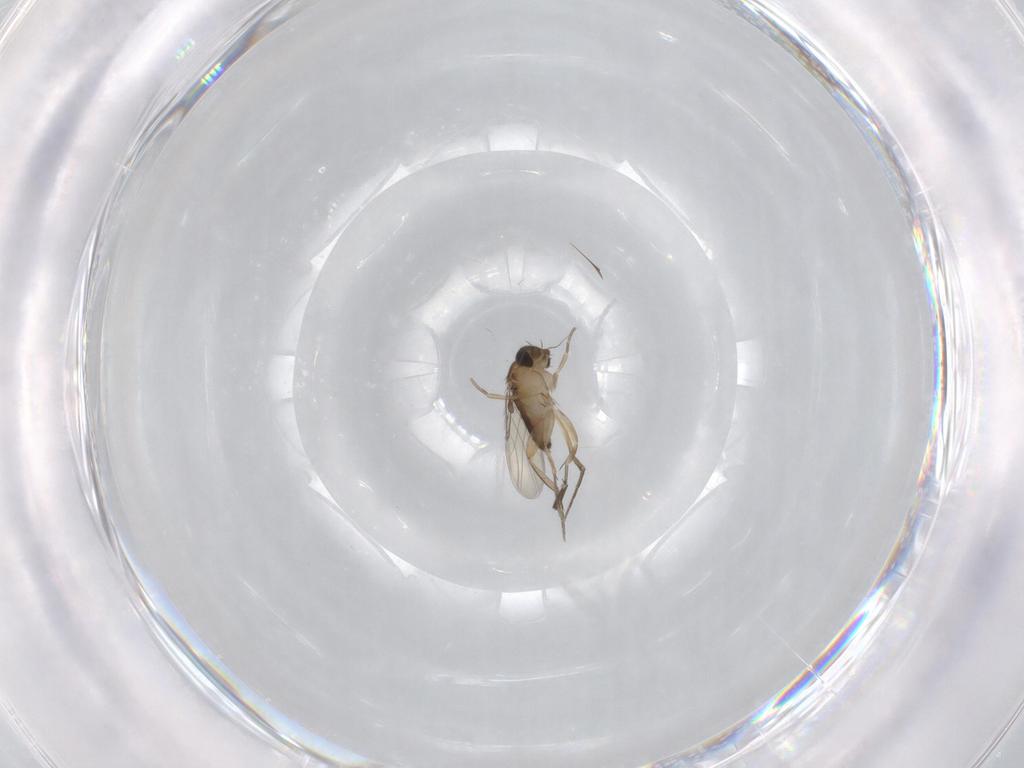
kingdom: Animalia
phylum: Arthropoda
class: Insecta
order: Diptera
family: Phoridae
